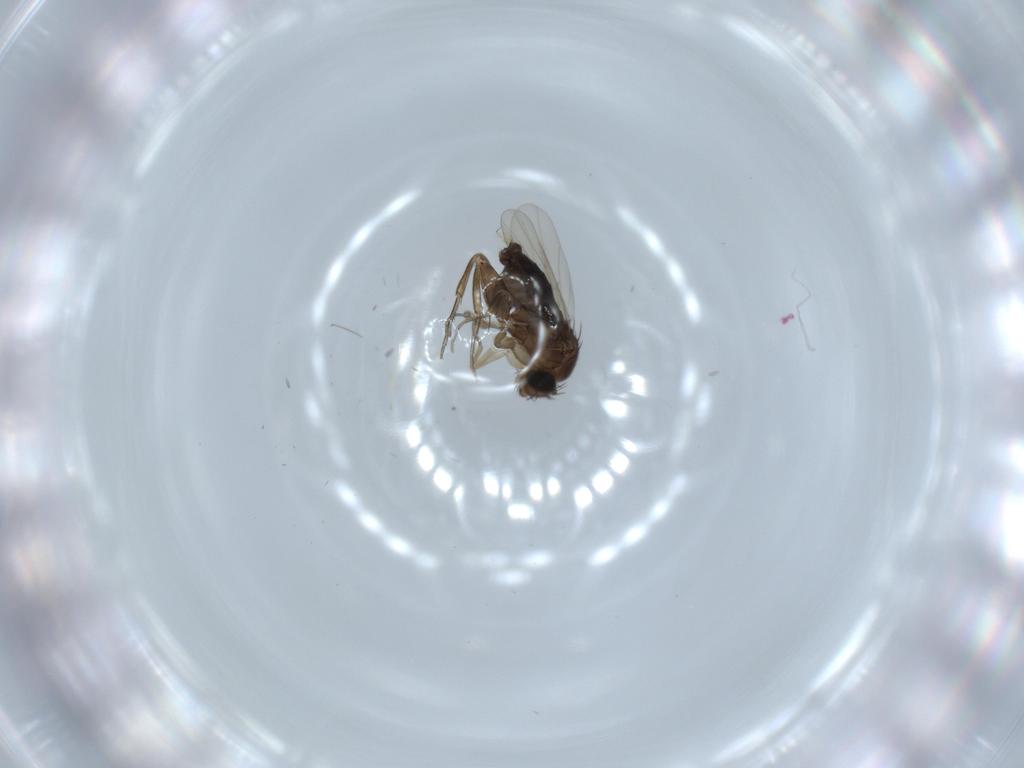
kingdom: Animalia
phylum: Arthropoda
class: Insecta
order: Diptera
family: Phoridae
